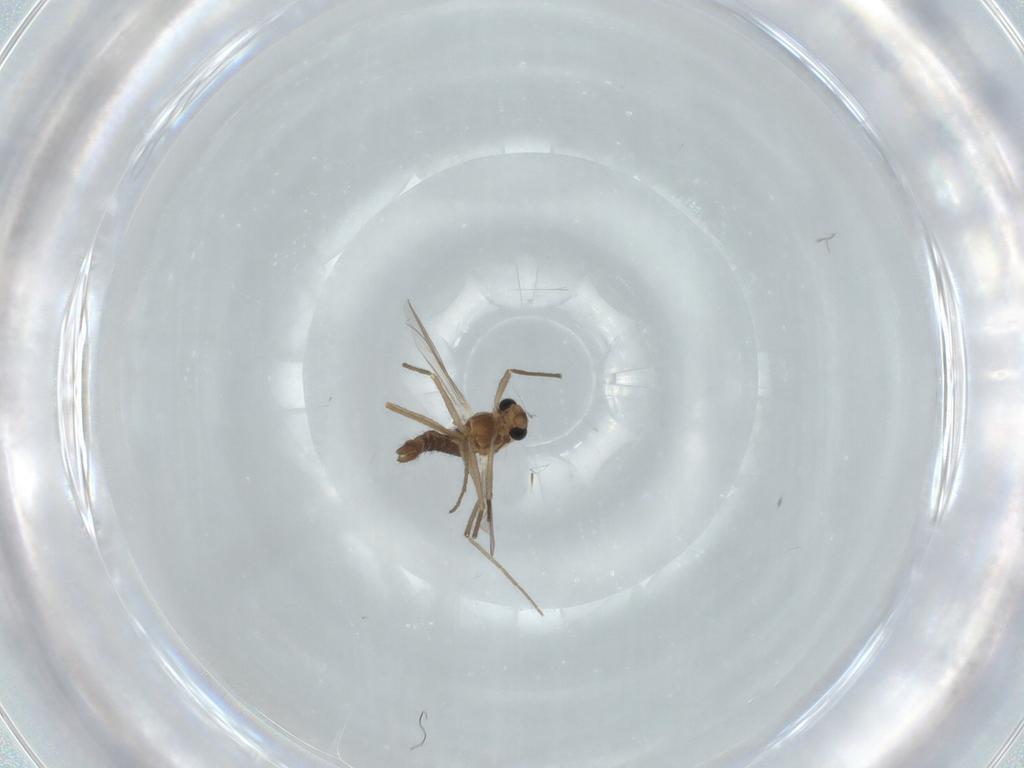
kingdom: Animalia
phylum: Arthropoda
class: Insecta
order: Diptera
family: Chironomidae
